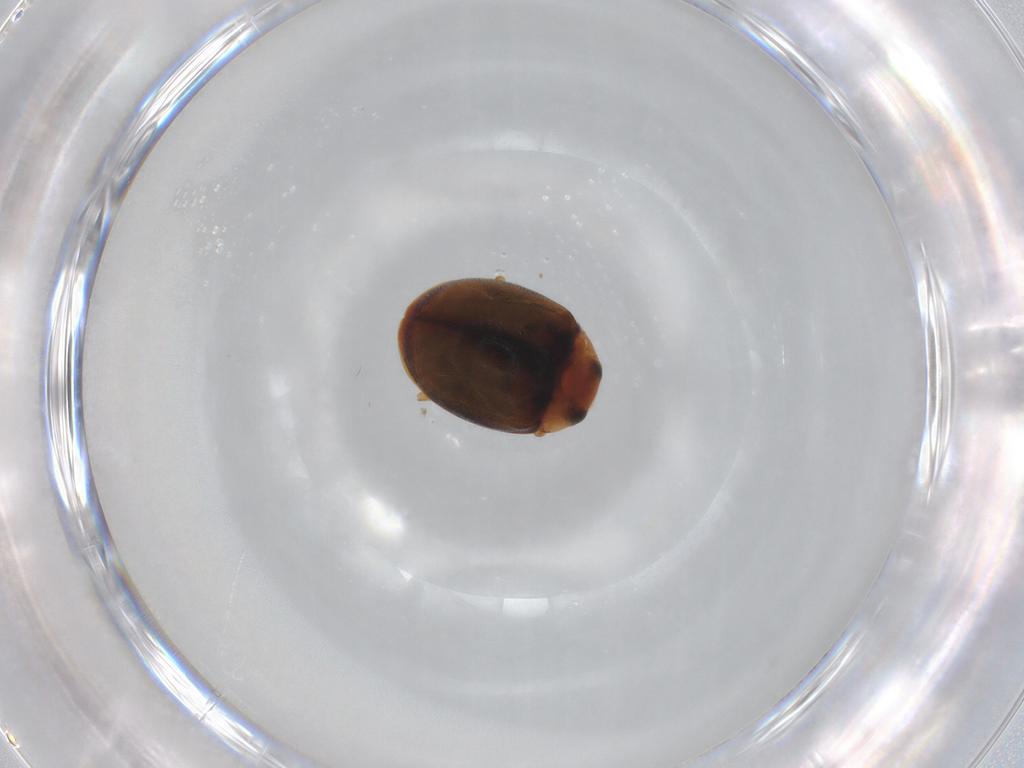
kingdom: Animalia
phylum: Arthropoda
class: Insecta
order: Coleoptera
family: Coccinellidae
